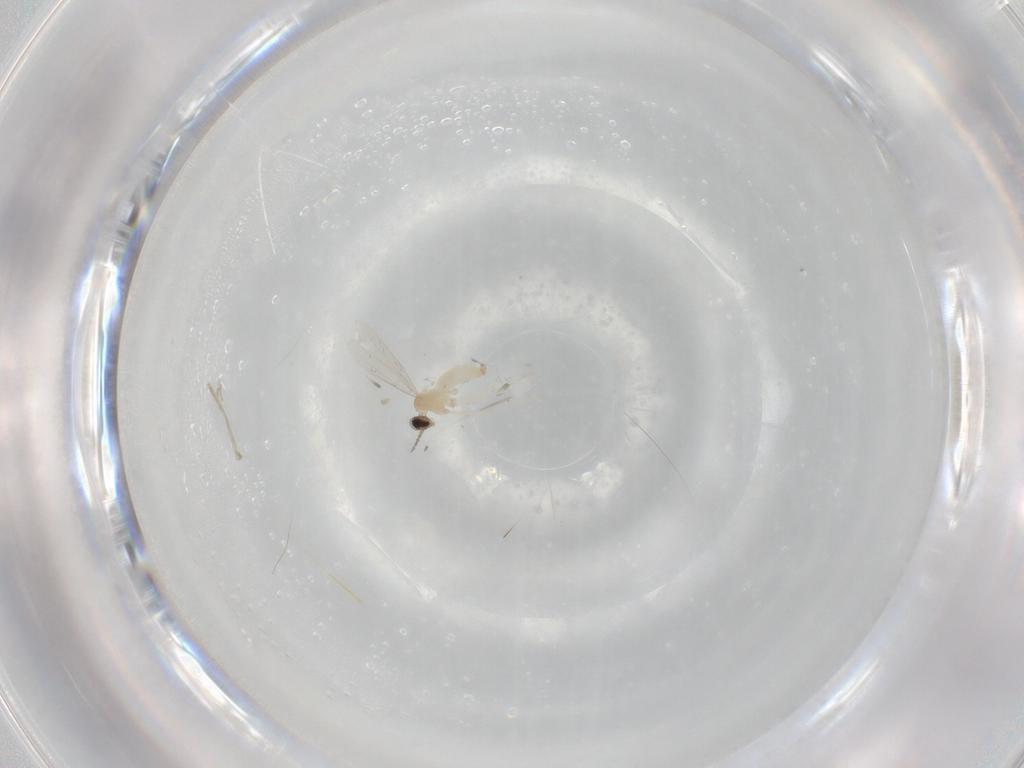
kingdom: Animalia
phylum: Arthropoda
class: Insecta
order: Diptera
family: Cecidomyiidae
